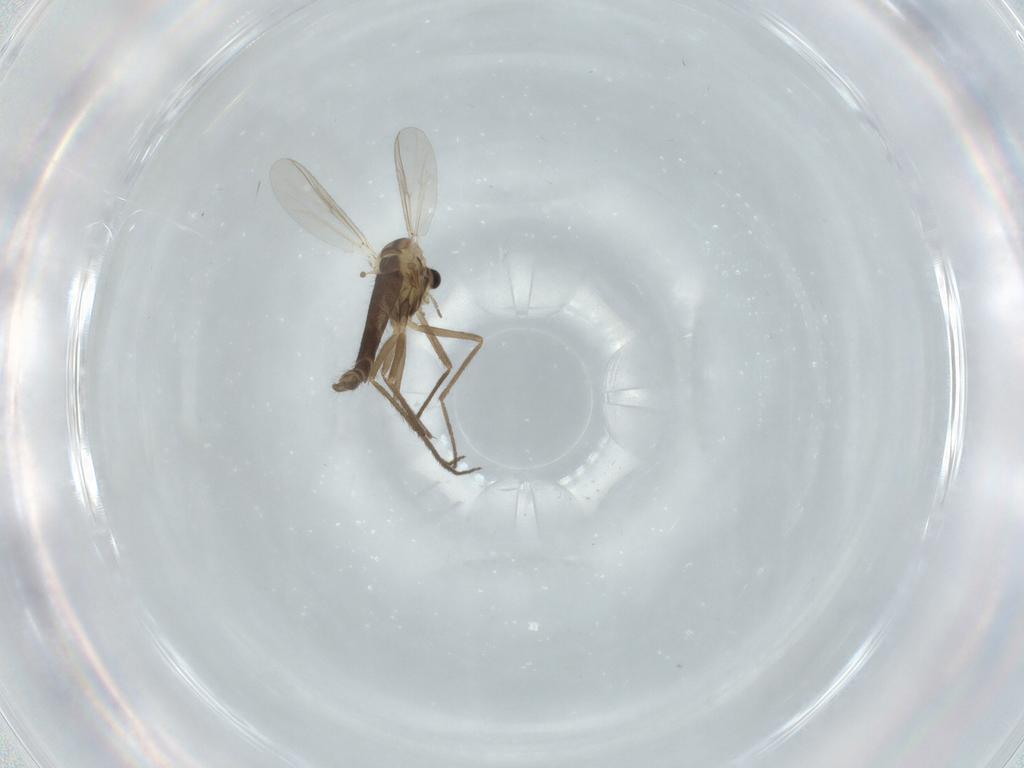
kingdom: Animalia
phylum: Arthropoda
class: Insecta
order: Diptera
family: Chironomidae
